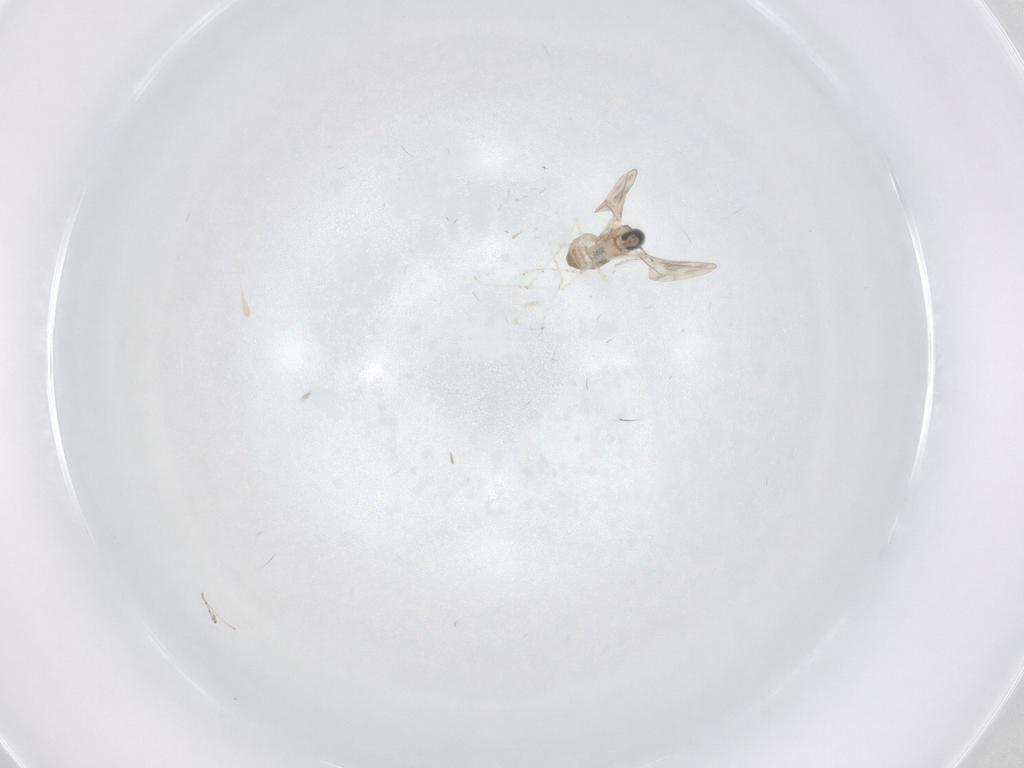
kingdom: Animalia
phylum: Arthropoda
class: Insecta
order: Diptera
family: Cecidomyiidae
